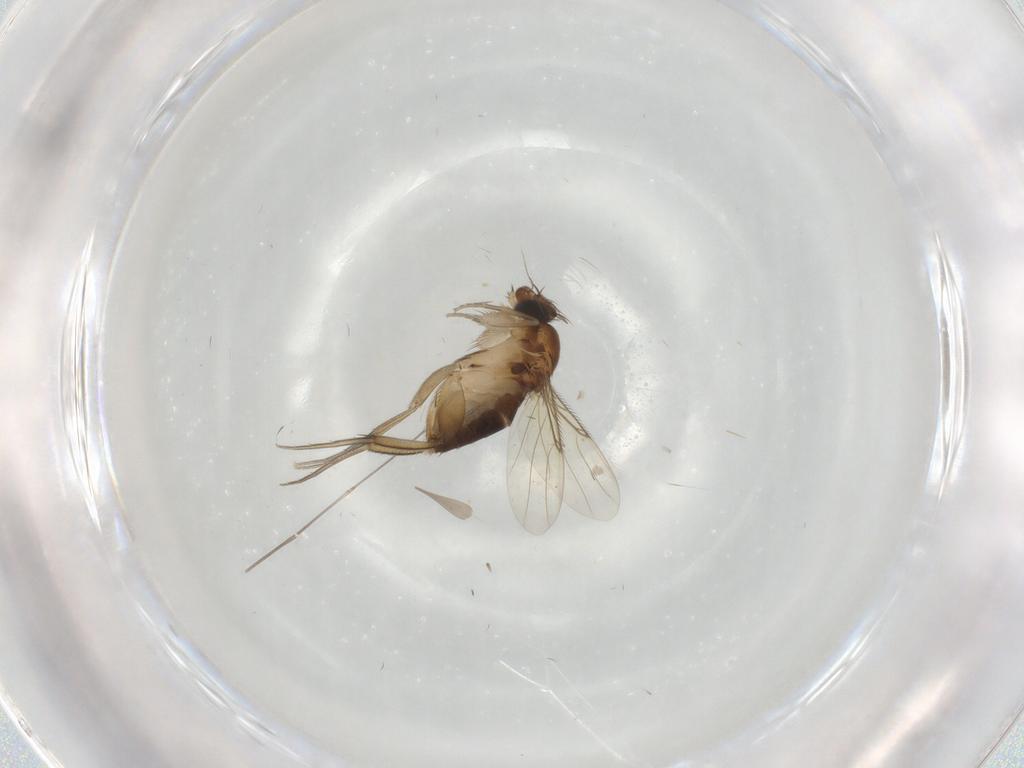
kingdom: Animalia
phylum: Arthropoda
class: Insecta
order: Diptera
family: Phoridae
